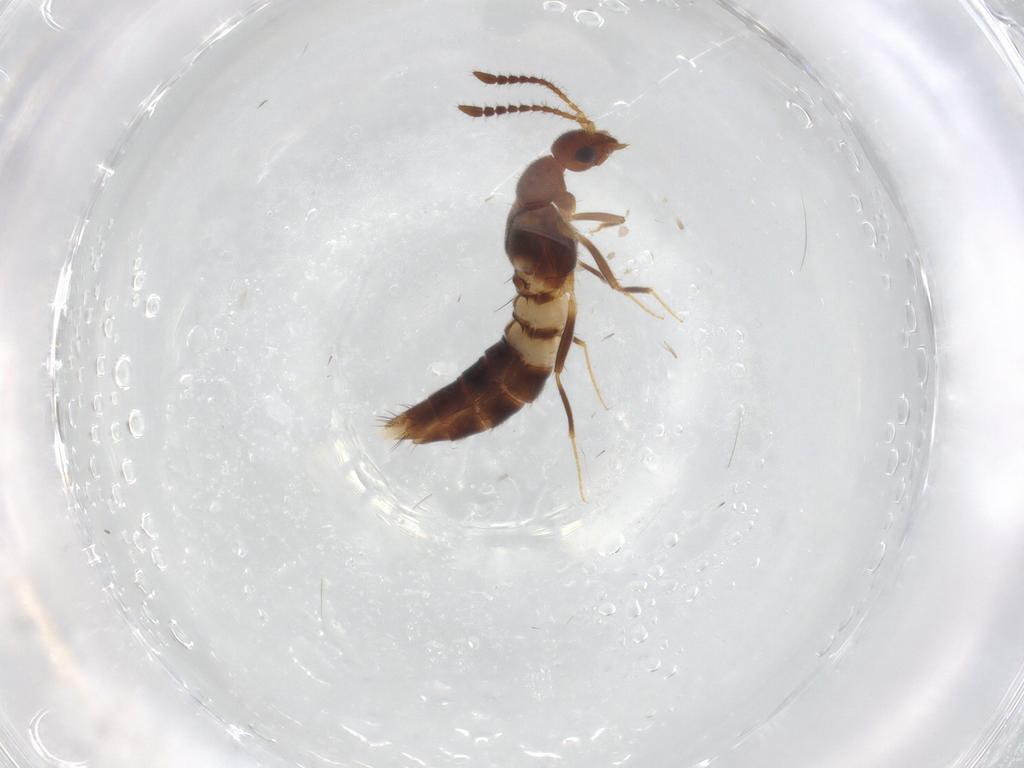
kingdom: Animalia
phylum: Arthropoda
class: Insecta
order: Coleoptera
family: Staphylinidae
